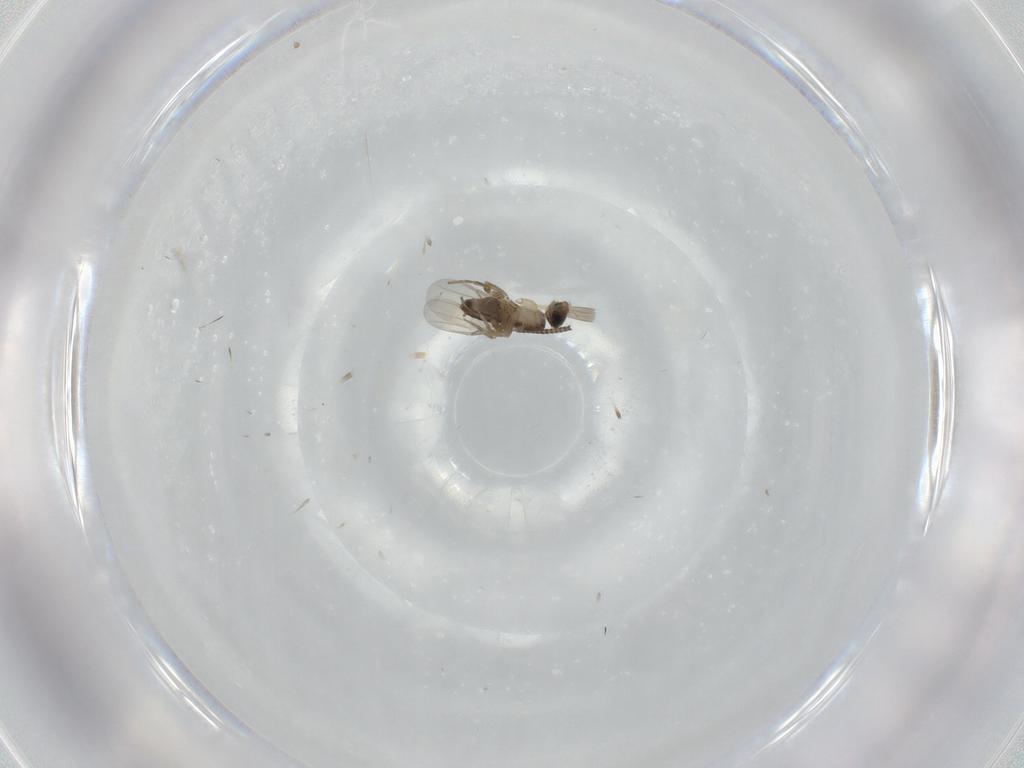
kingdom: Animalia
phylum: Arthropoda
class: Insecta
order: Diptera
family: Phoridae
